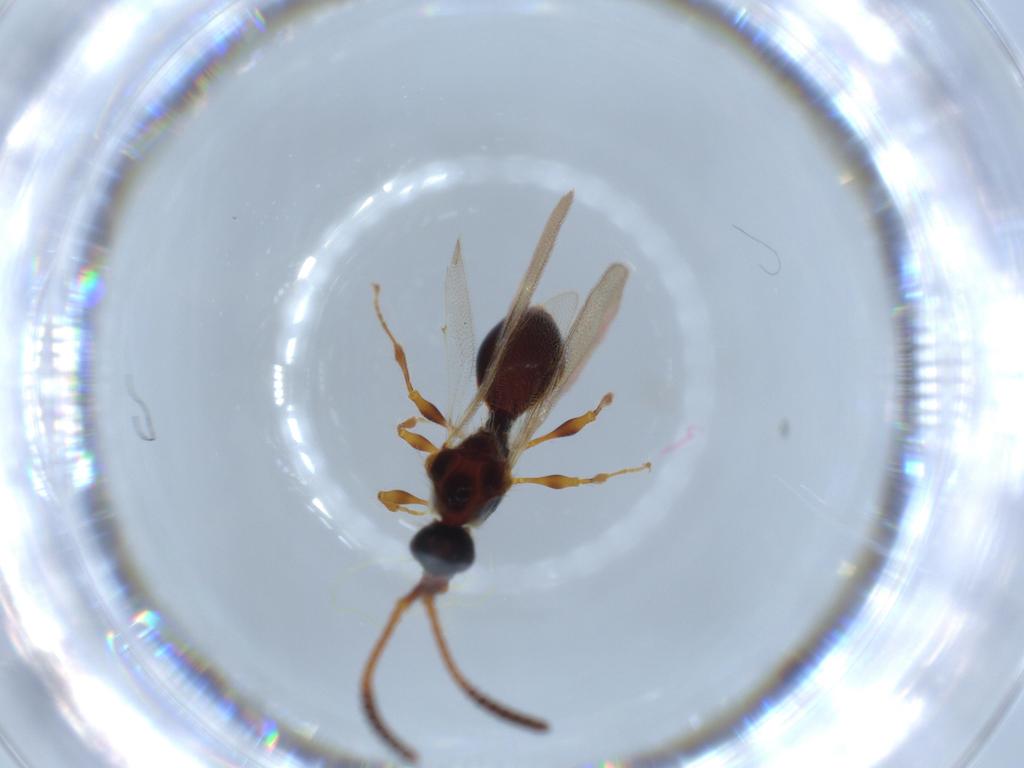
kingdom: Animalia
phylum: Arthropoda
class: Insecta
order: Hymenoptera
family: Diapriidae
